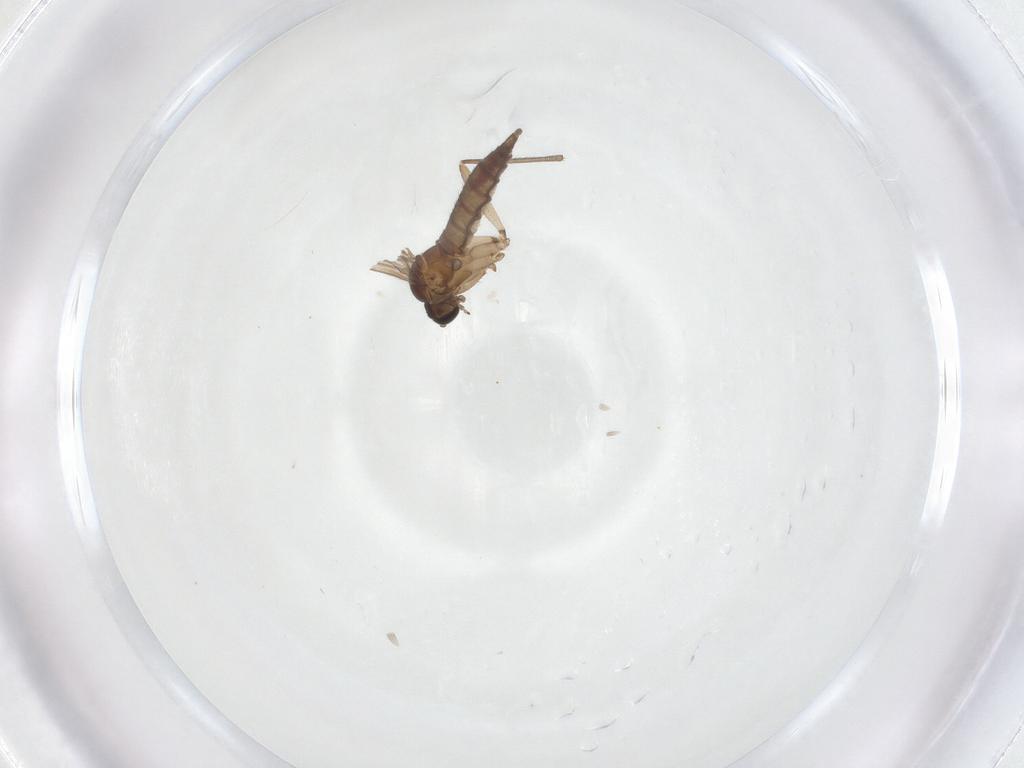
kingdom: Animalia
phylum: Arthropoda
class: Insecta
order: Diptera
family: Sciaridae
